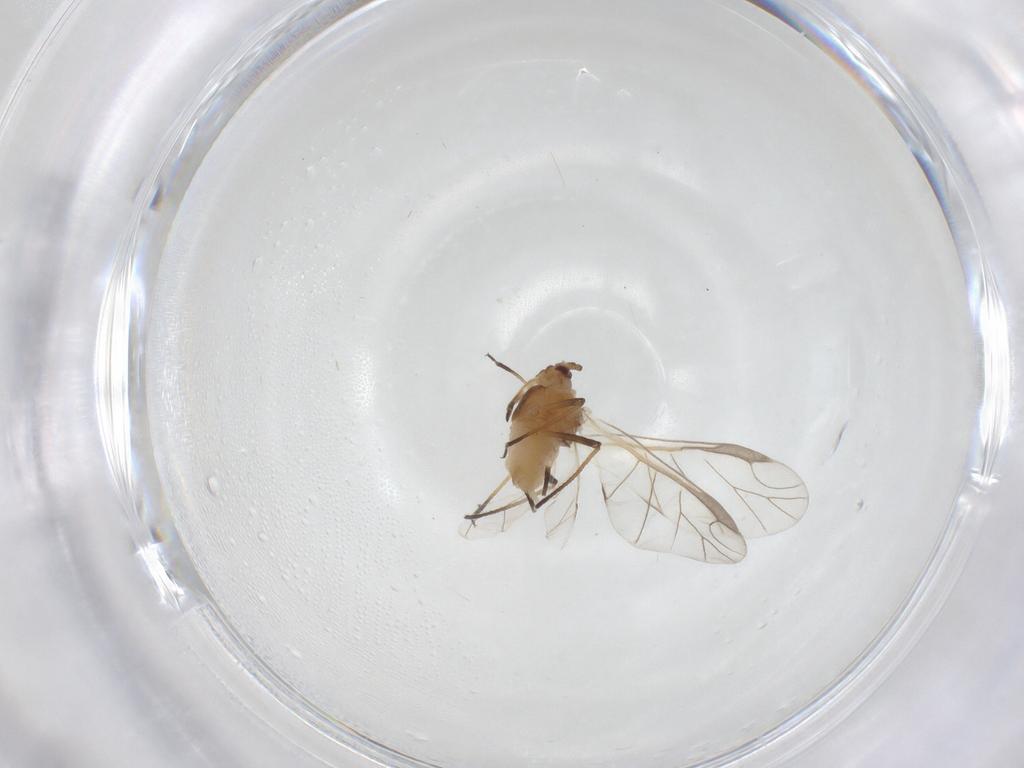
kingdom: Animalia
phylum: Arthropoda
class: Insecta
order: Hemiptera
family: Aphididae
